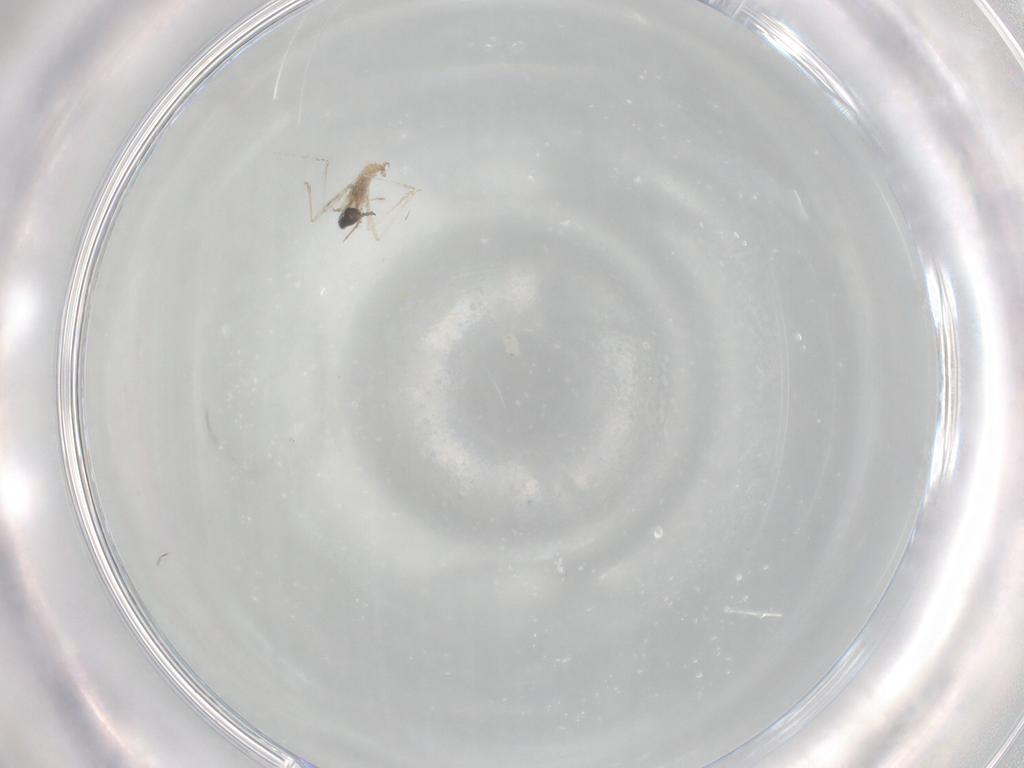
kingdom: Animalia
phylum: Arthropoda
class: Insecta
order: Diptera
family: Cecidomyiidae
